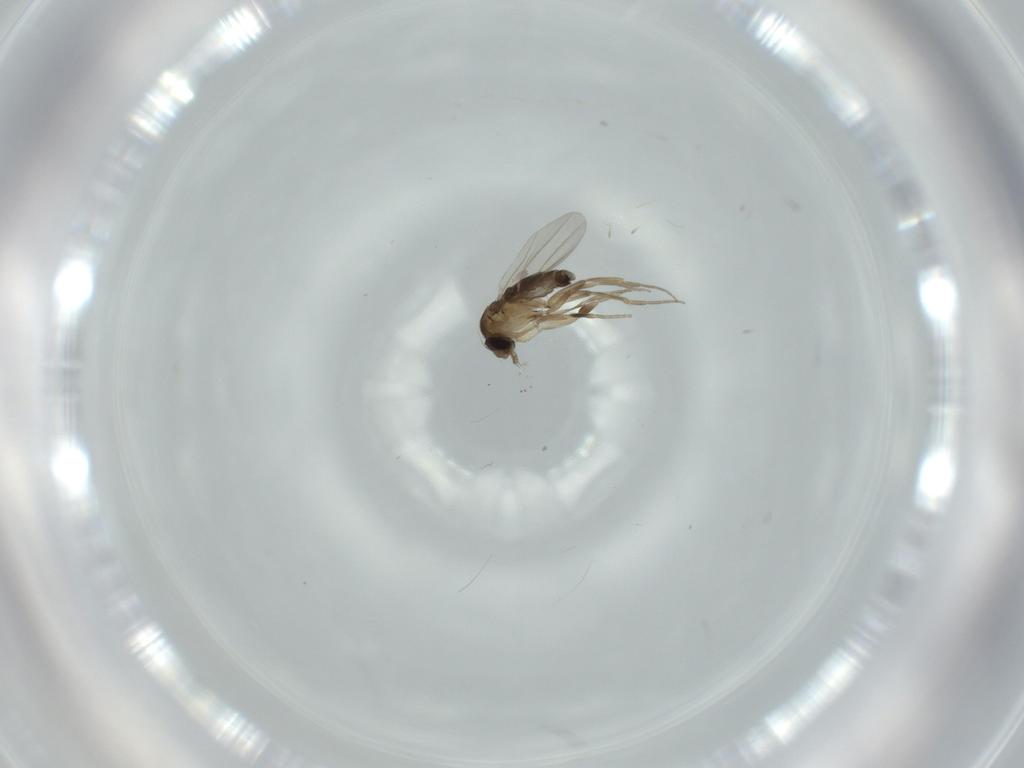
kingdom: Animalia
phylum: Arthropoda
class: Insecta
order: Diptera
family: Phoridae
